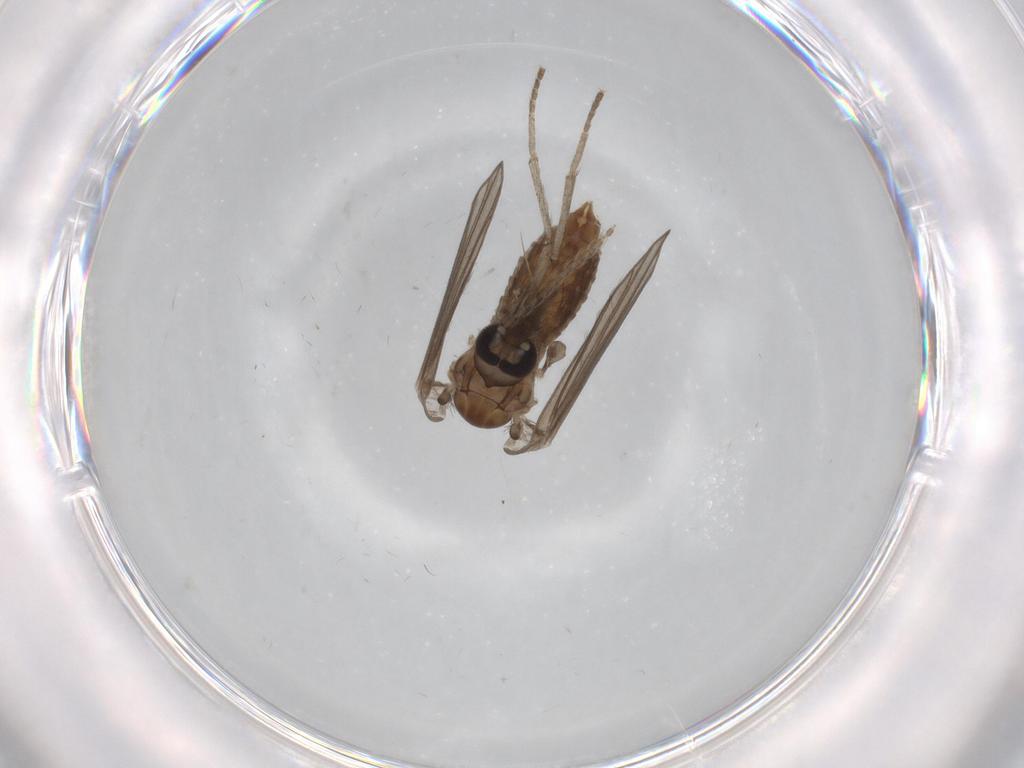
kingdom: Animalia
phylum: Arthropoda
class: Insecta
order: Diptera
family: Psychodidae
